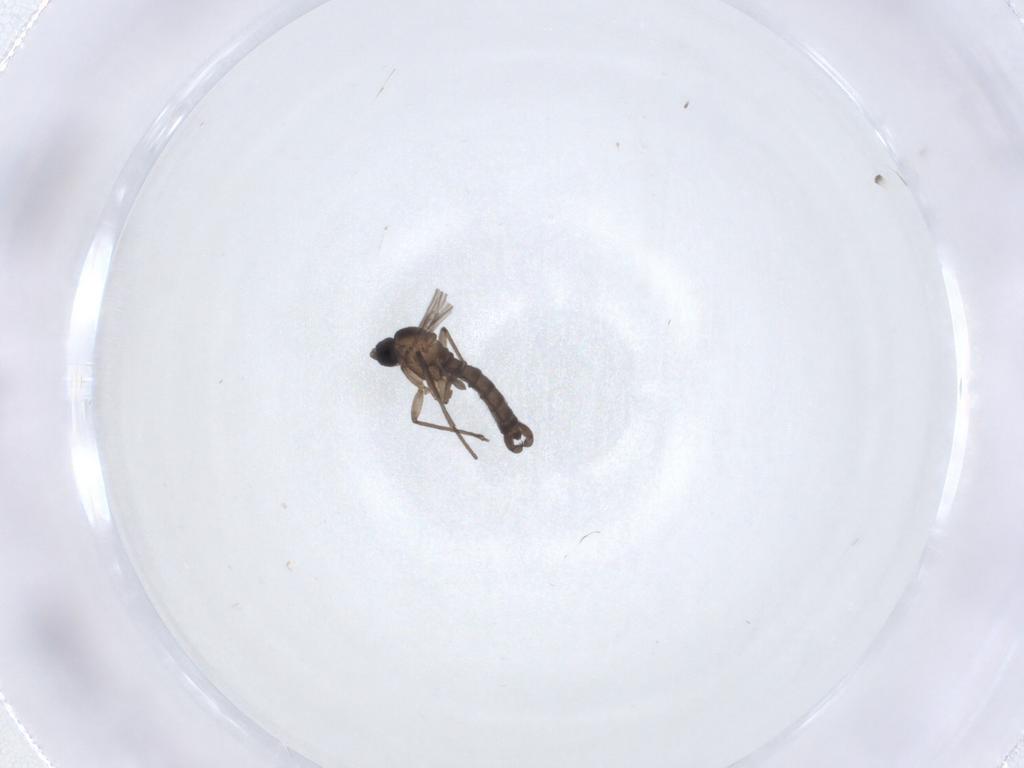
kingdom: Animalia
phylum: Arthropoda
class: Insecta
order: Diptera
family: Sciaridae
